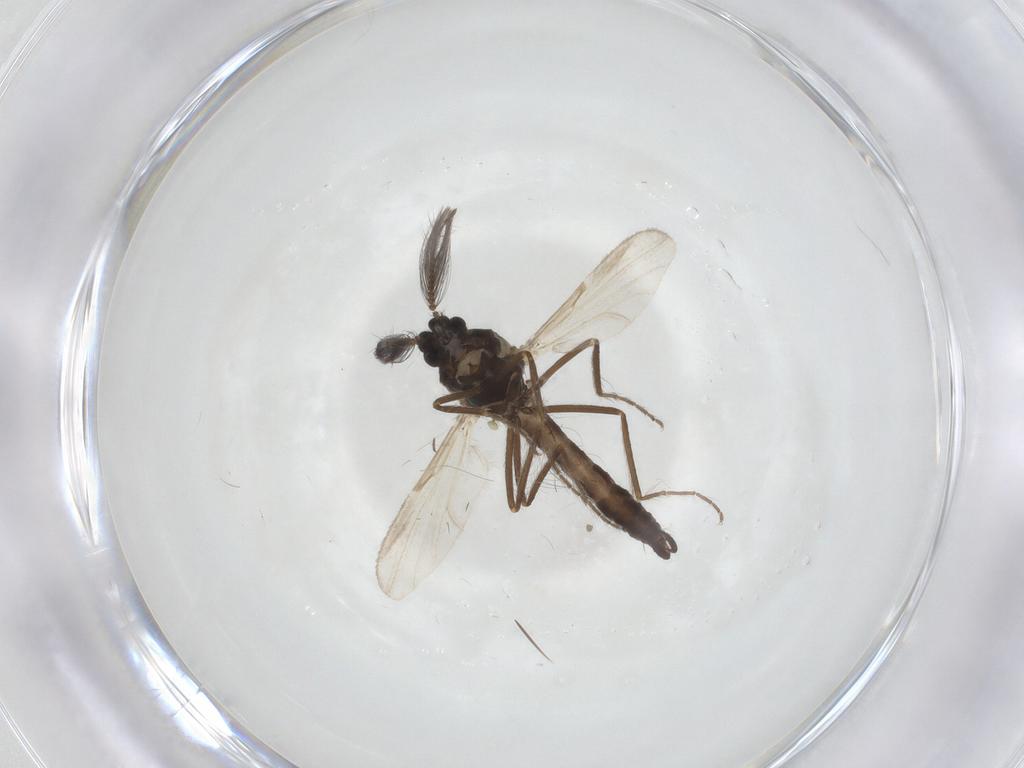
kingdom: Animalia
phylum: Arthropoda
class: Insecta
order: Diptera
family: Ceratopogonidae
